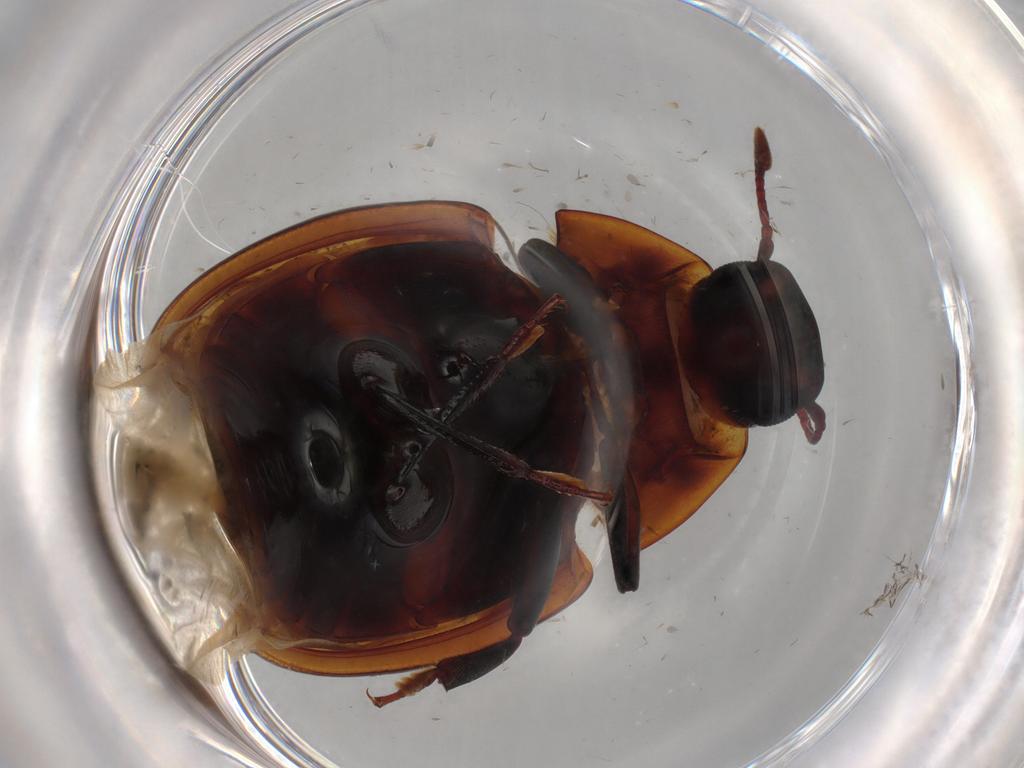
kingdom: Animalia
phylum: Arthropoda
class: Insecta
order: Coleoptera
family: Zopheridae
